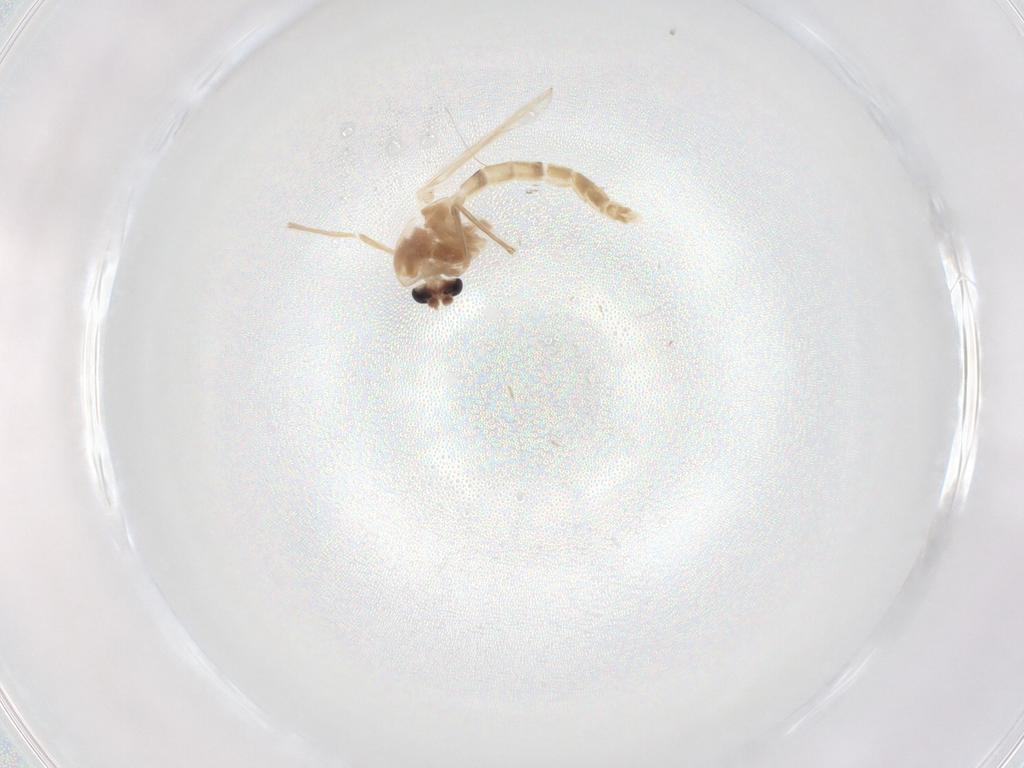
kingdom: Animalia
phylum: Arthropoda
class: Insecta
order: Diptera
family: Chironomidae
